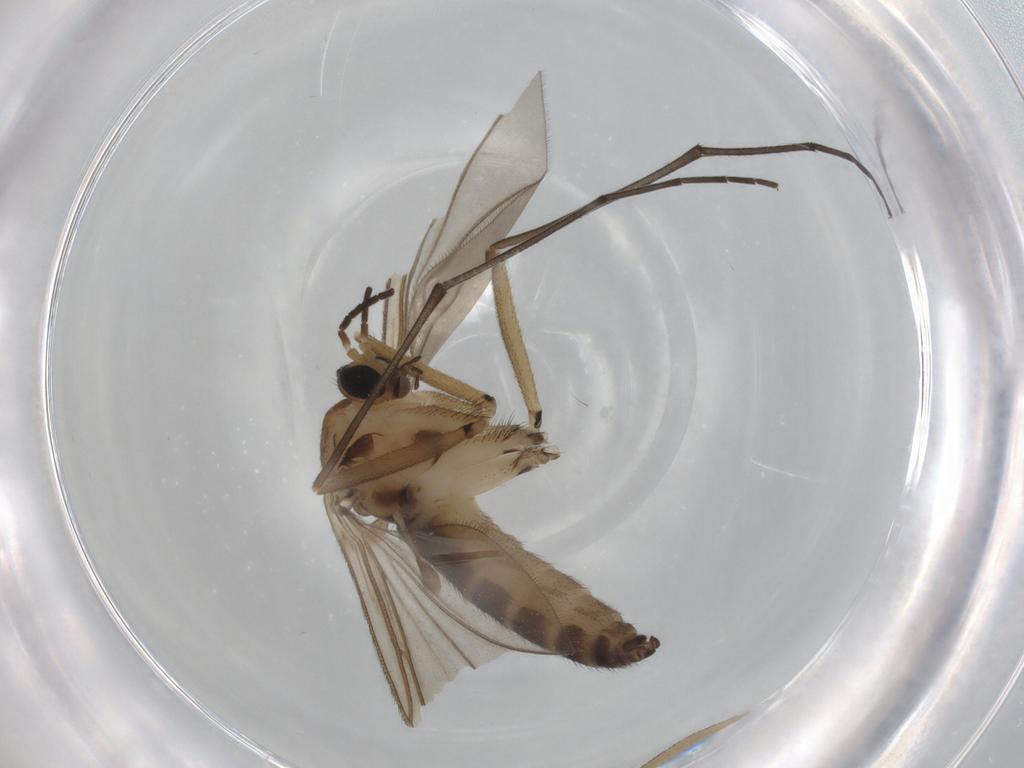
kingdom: Animalia
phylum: Arthropoda
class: Insecta
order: Diptera
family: Sciaridae
